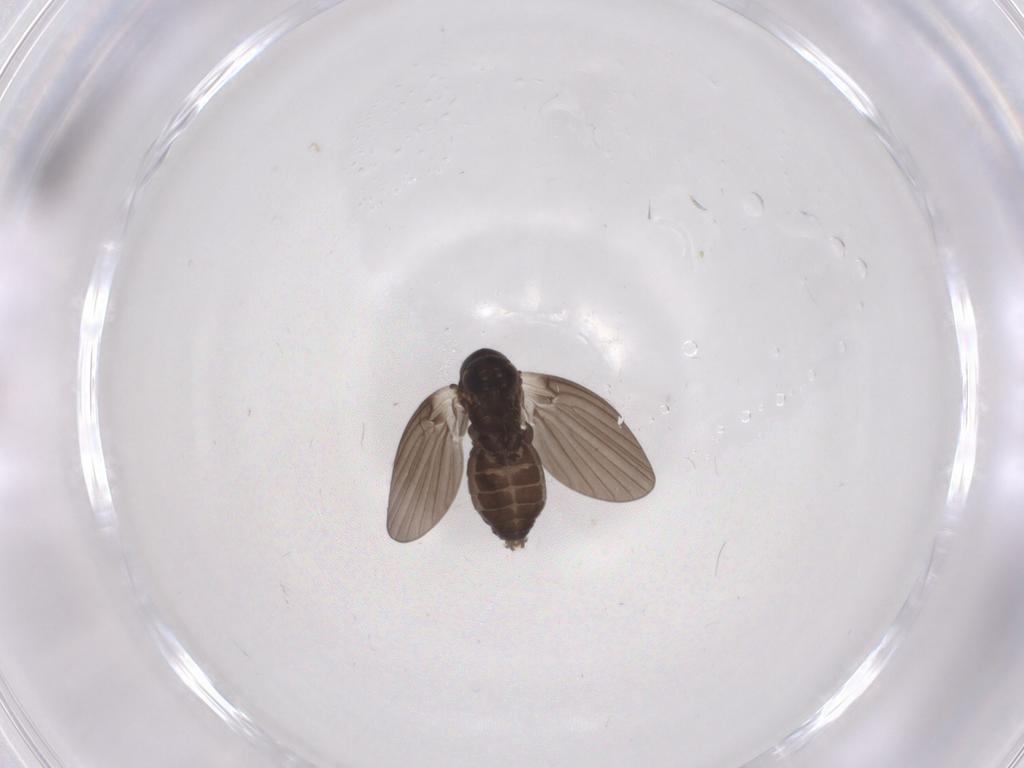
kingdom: Animalia
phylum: Arthropoda
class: Insecta
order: Diptera
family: Psychodidae
